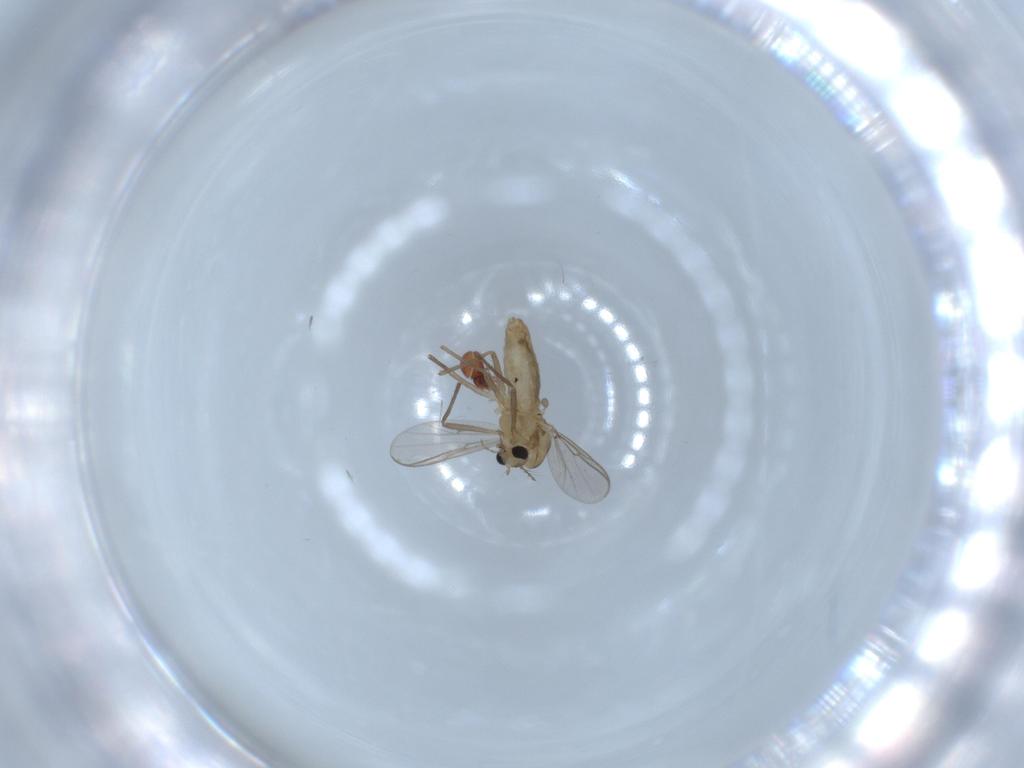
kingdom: Animalia
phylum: Arthropoda
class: Insecta
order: Diptera
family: Chironomidae
